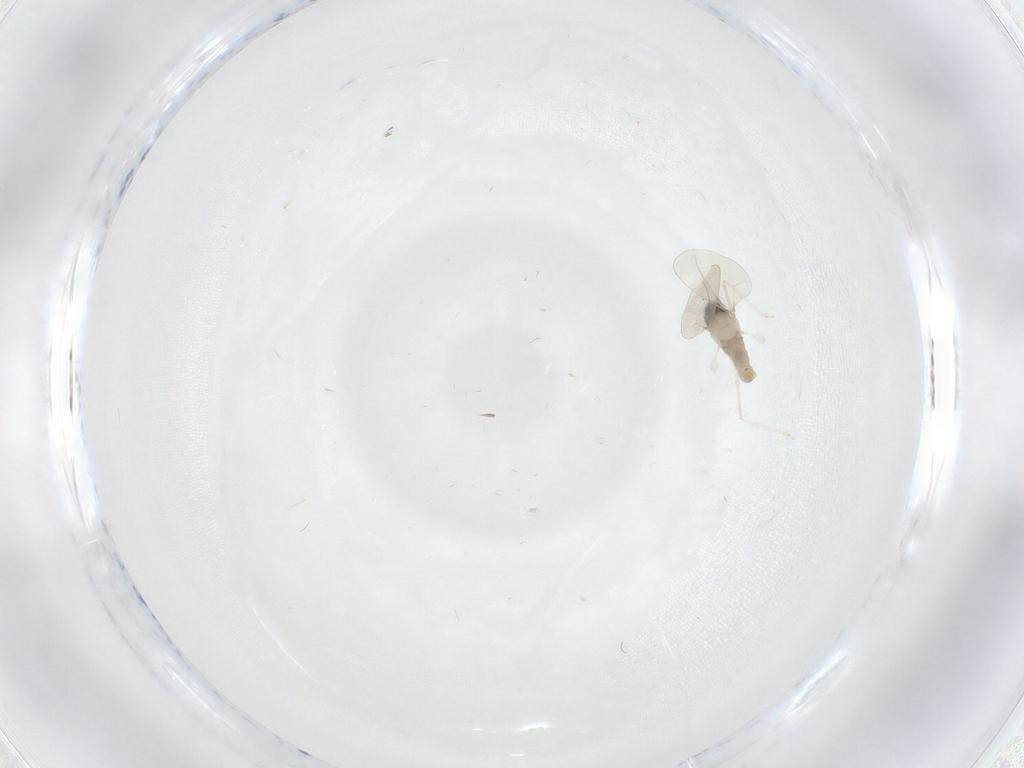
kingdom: Animalia
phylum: Arthropoda
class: Insecta
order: Diptera
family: Cecidomyiidae
